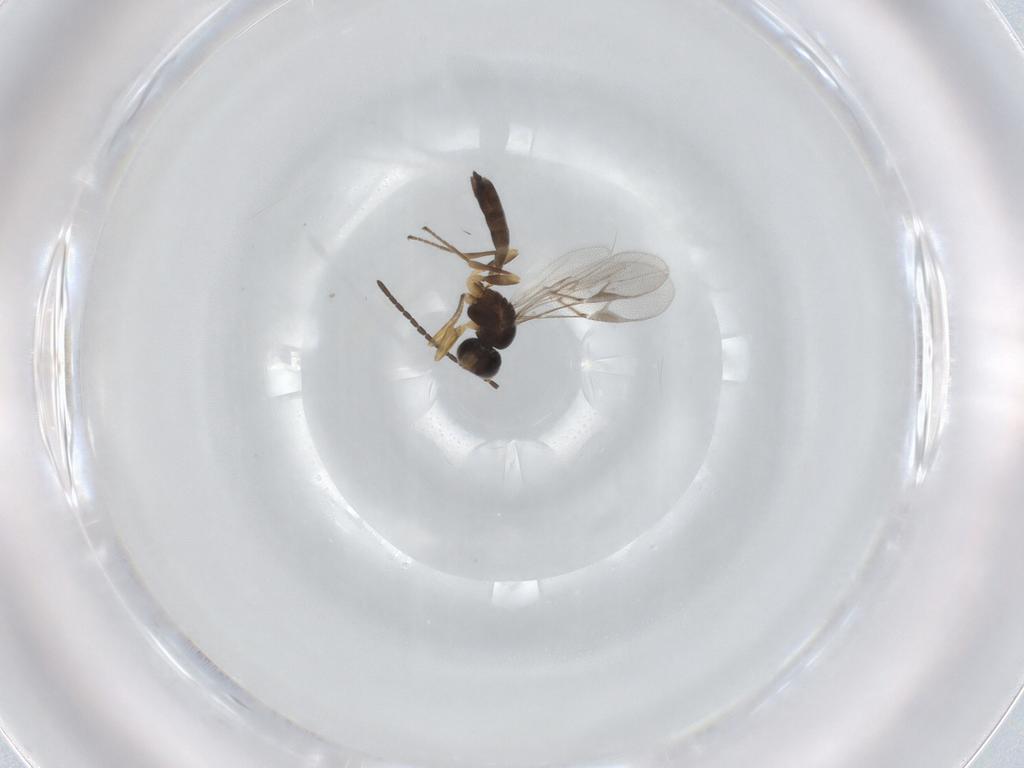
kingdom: Animalia
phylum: Arthropoda
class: Insecta
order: Hymenoptera
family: Braconidae
